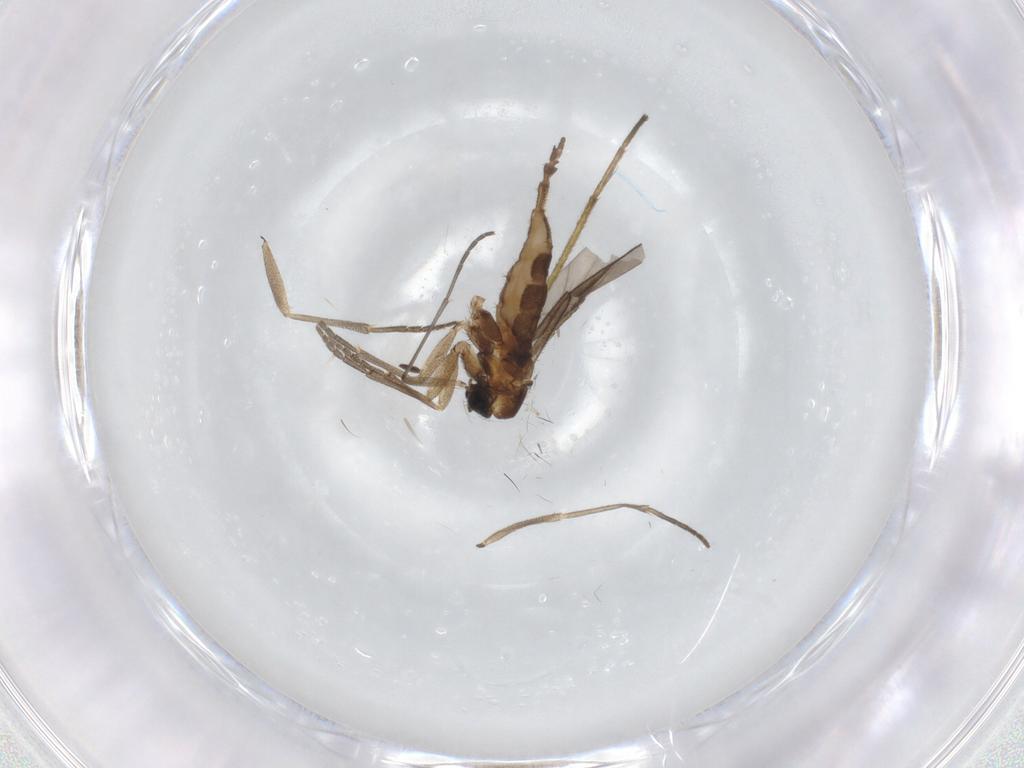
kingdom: Animalia
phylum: Arthropoda
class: Insecta
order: Diptera
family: Sciaridae
